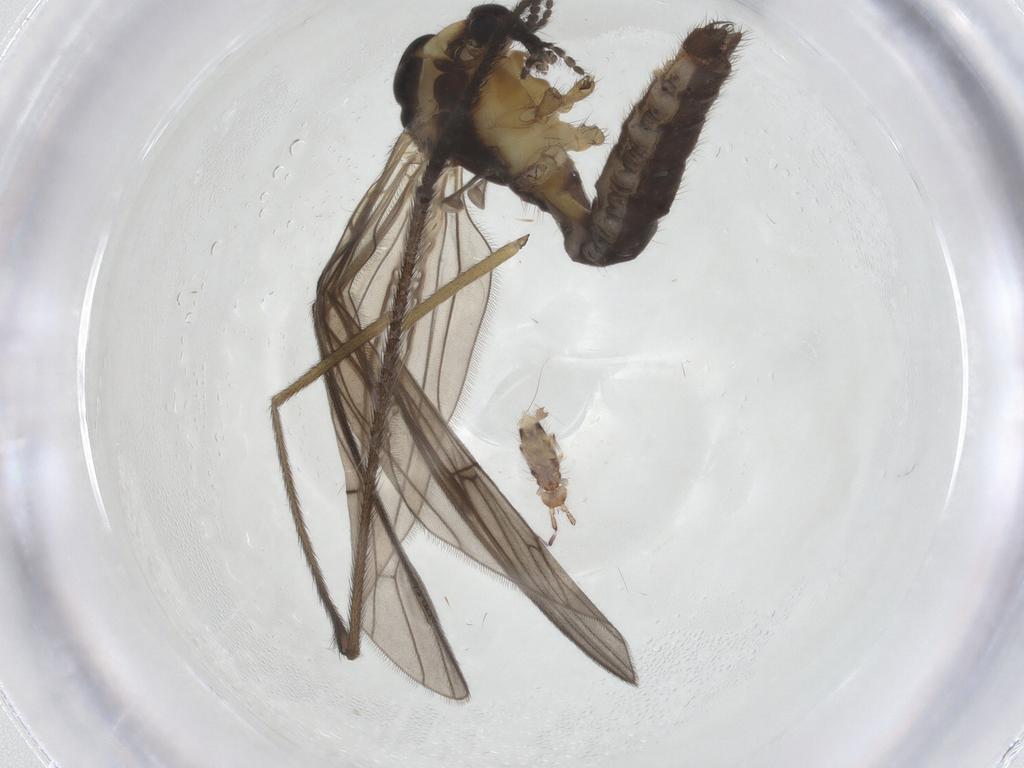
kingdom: Animalia
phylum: Arthropoda
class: Insecta
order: Diptera
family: Limoniidae
